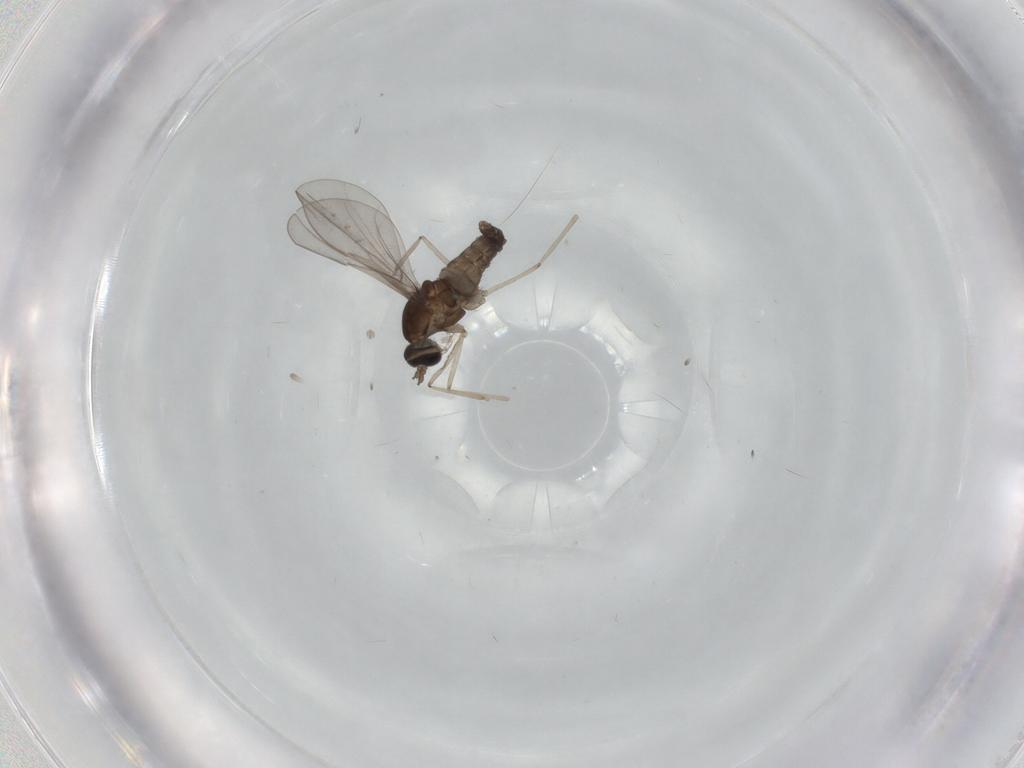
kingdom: Animalia
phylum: Arthropoda
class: Insecta
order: Diptera
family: Cecidomyiidae
